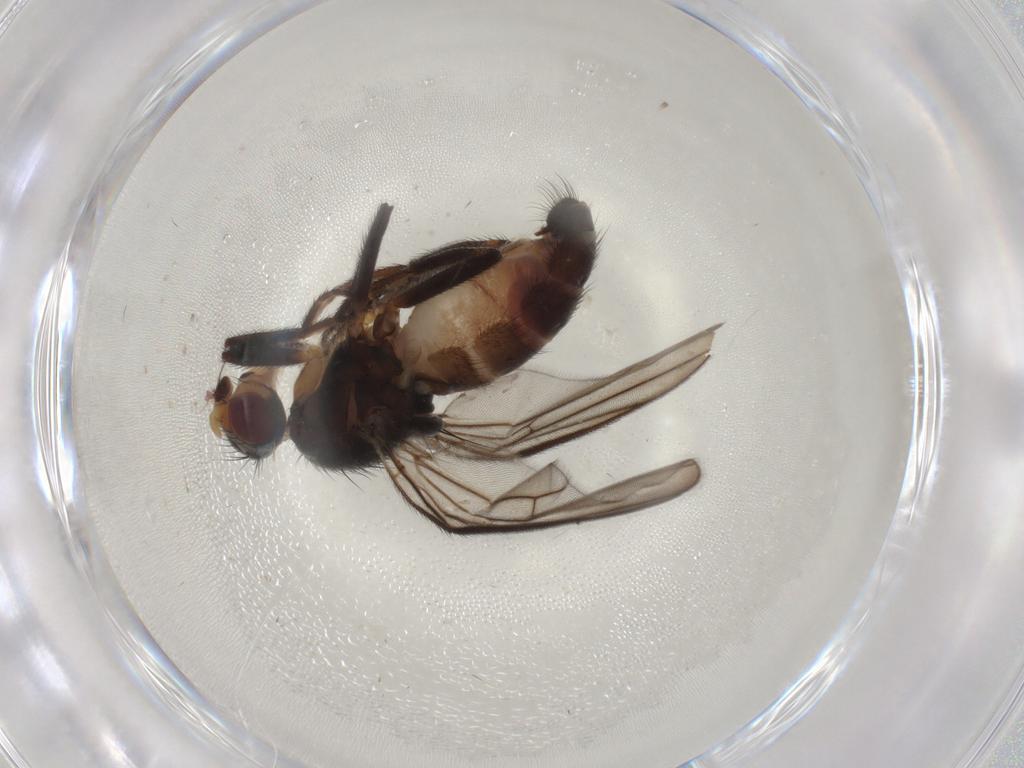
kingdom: Animalia
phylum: Arthropoda
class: Insecta
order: Diptera
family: Chloropidae
